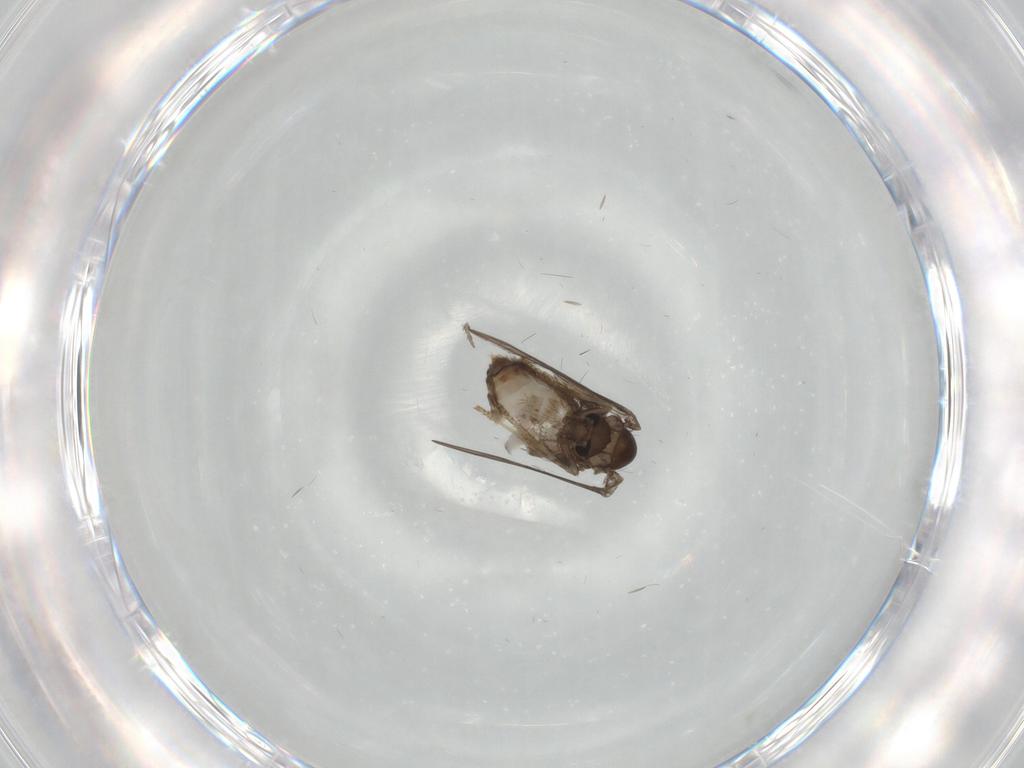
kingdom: Animalia
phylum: Arthropoda
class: Insecta
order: Diptera
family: Psychodidae
